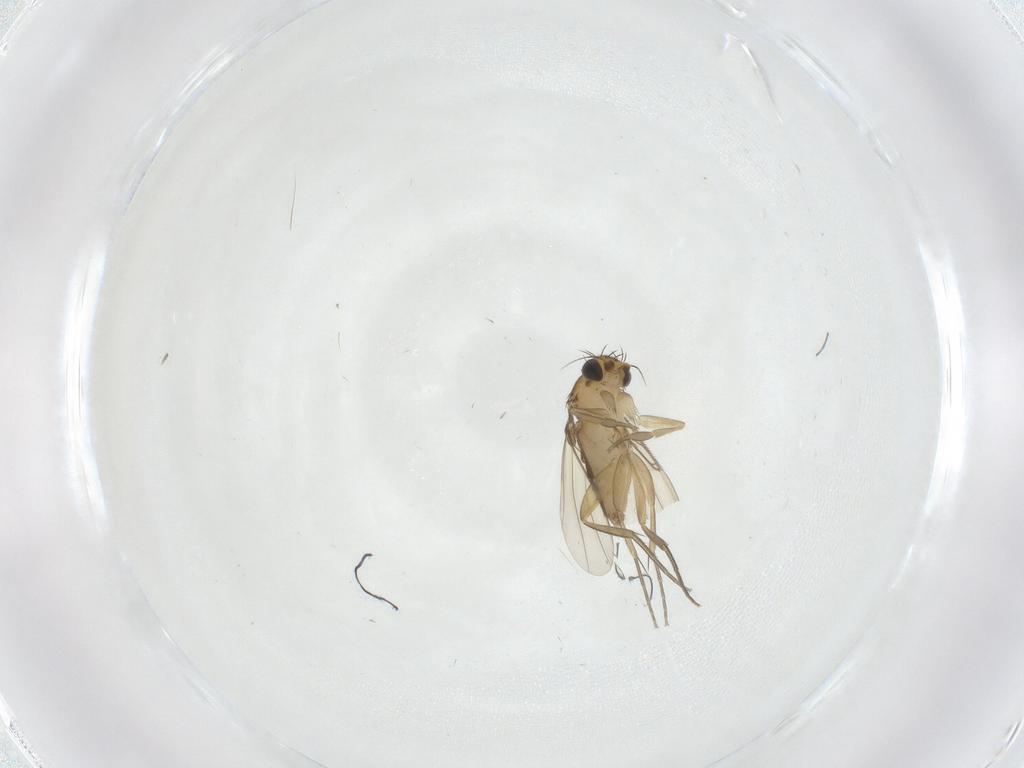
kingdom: Animalia
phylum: Arthropoda
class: Insecta
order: Diptera
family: Phoridae
